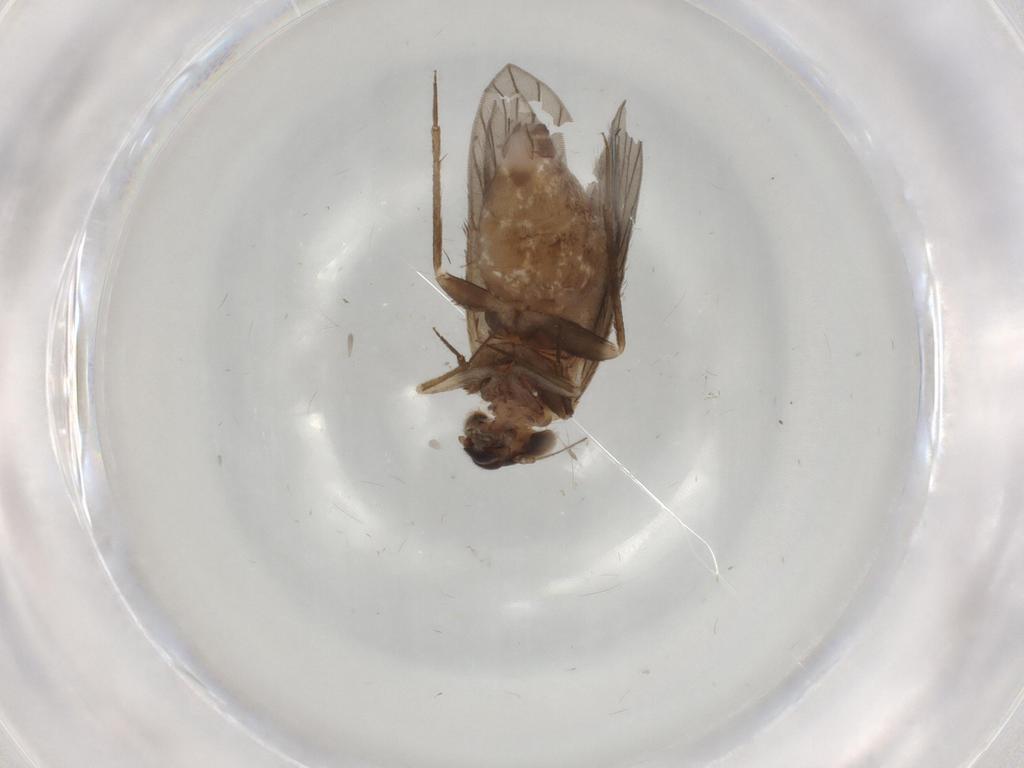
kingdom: Animalia
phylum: Arthropoda
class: Insecta
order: Psocodea
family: Lepidopsocidae
